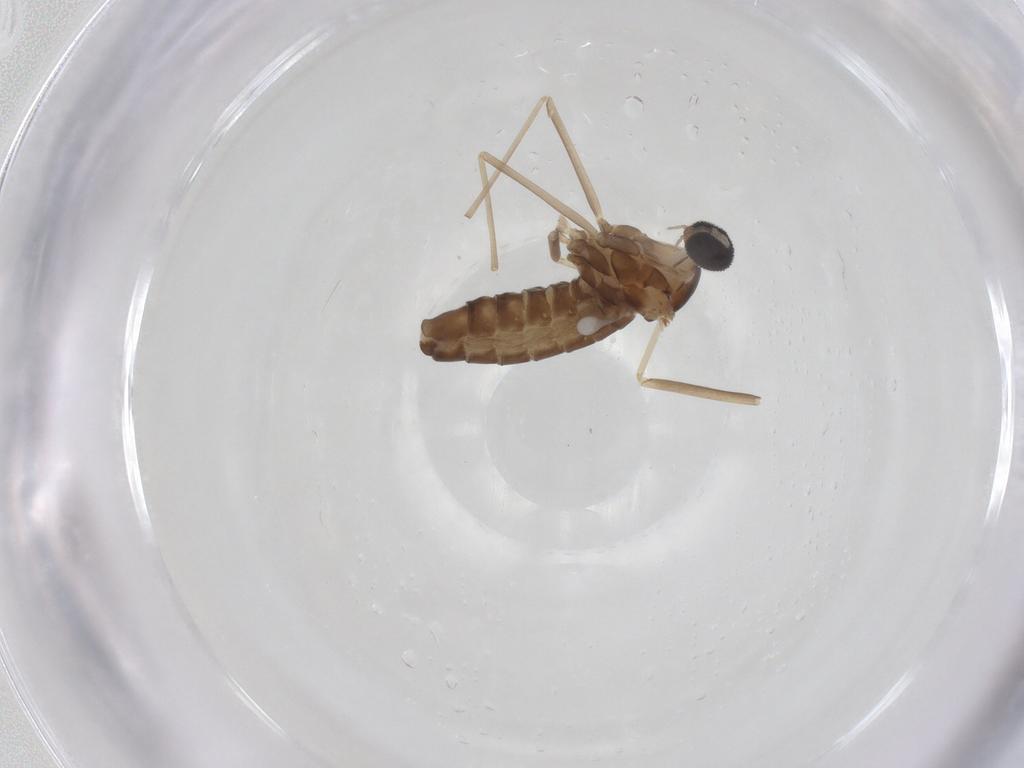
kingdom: Animalia
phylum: Arthropoda
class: Insecta
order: Diptera
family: Cecidomyiidae
